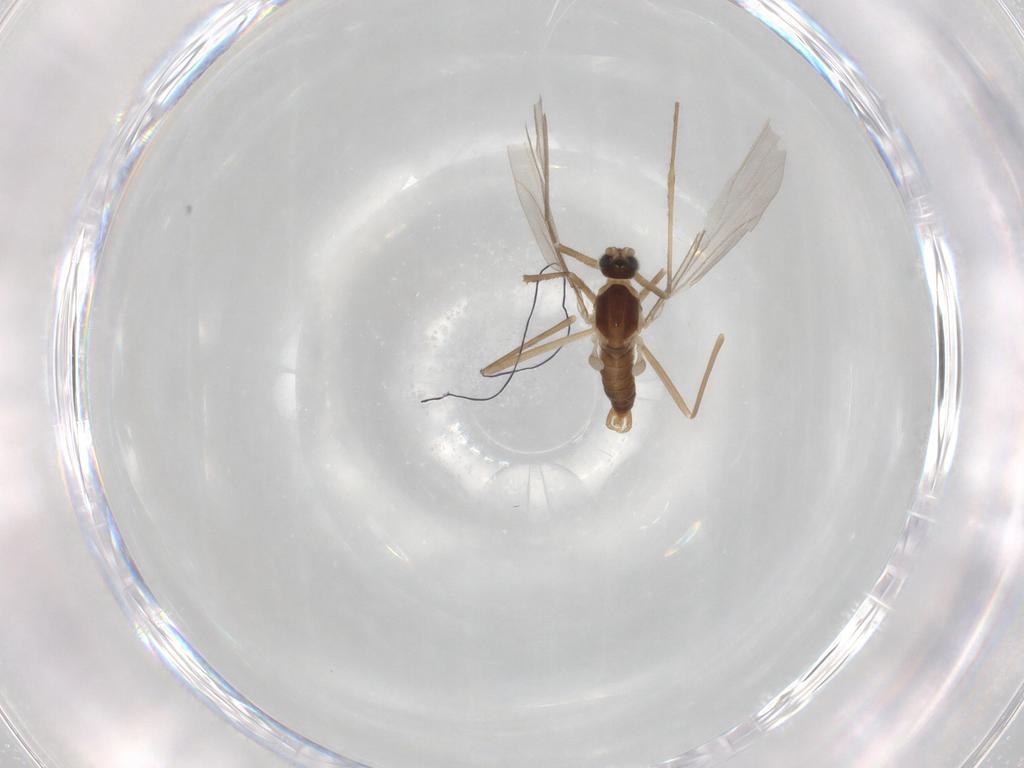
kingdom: Animalia
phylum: Arthropoda
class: Insecta
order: Diptera
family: Cecidomyiidae
